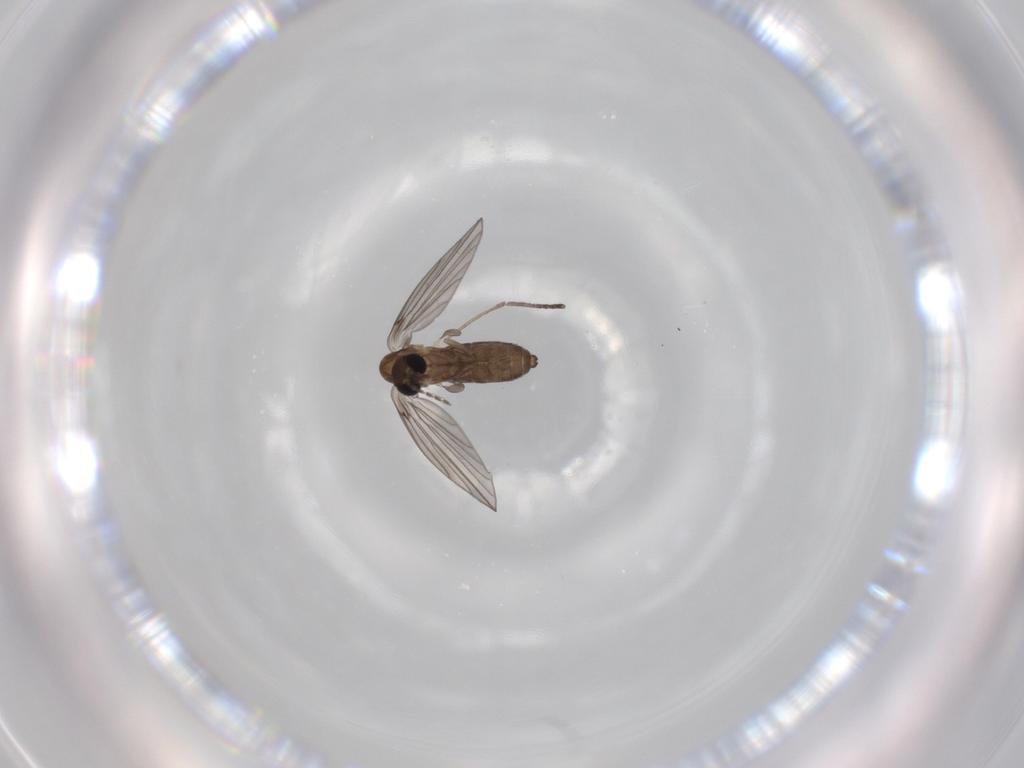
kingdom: Animalia
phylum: Arthropoda
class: Insecta
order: Diptera
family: Psychodidae
